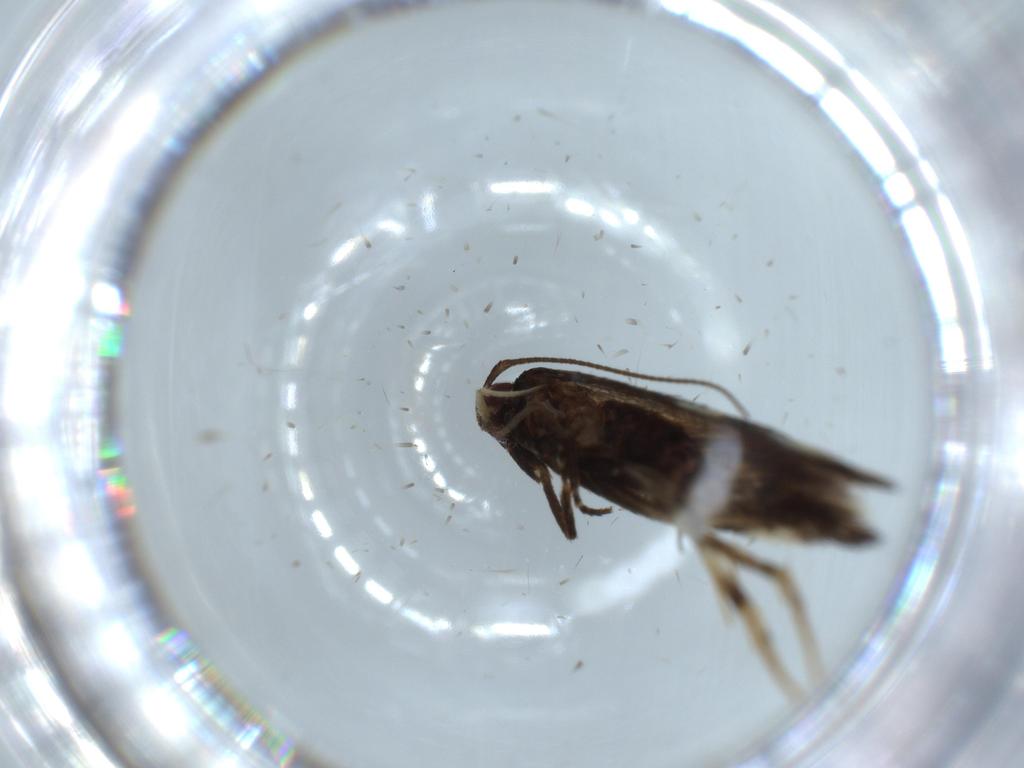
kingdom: Animalia
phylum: Arthropoda
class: Insecta
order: Lepidoptera
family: Cosmopterigidae
